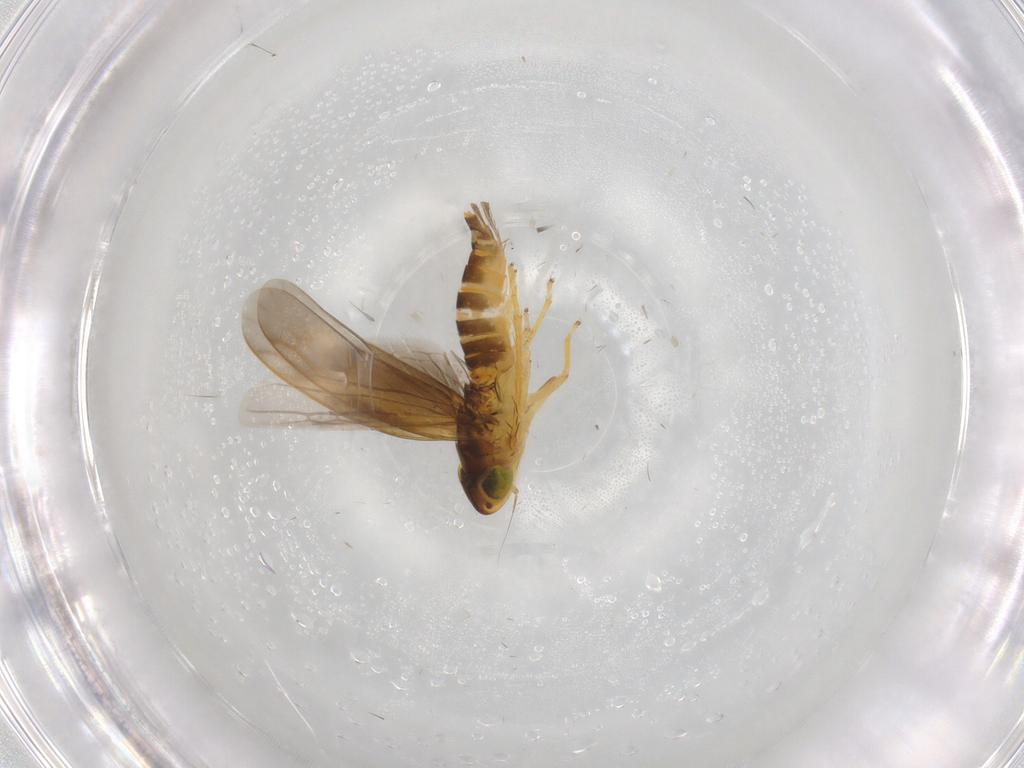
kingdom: Animalia
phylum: Arthropoda
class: Insecta
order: Hemiptera
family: Cicadellidae
